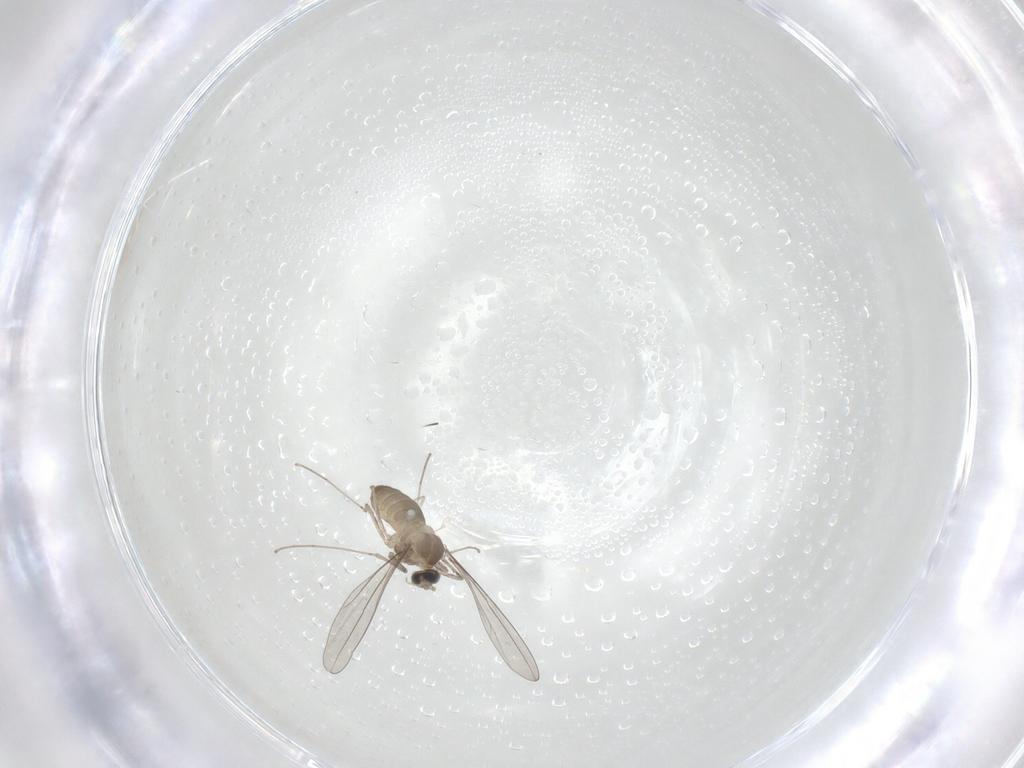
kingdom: Animalia
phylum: Arthropoda
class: Insecta
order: Diptera
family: Cecidomyiidae
